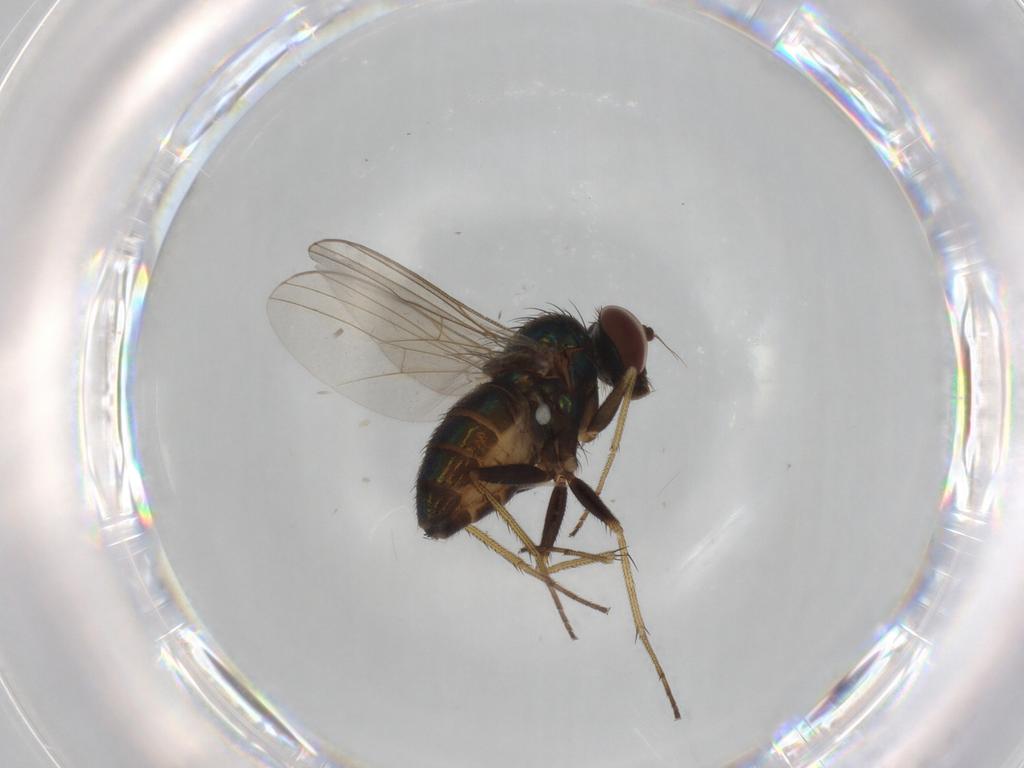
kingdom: Animalia
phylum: Arthropoda
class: Insecta
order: Diptera
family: Dolichopodidae
